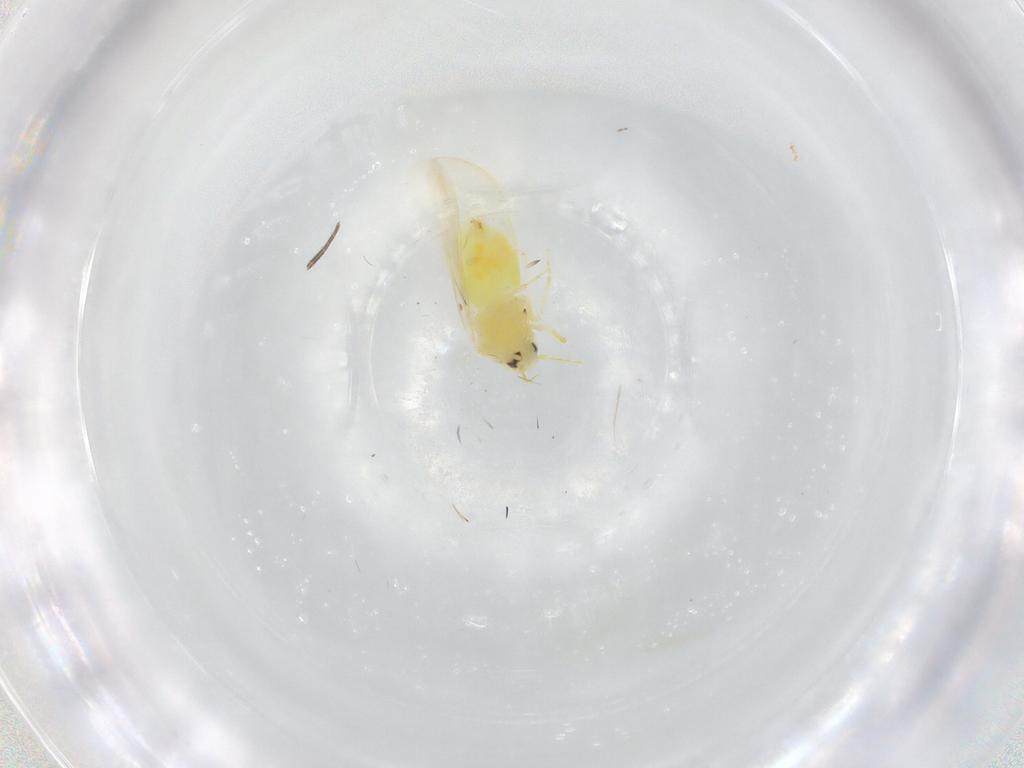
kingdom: Animalia
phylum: Arthropoda
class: Insecta
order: Hemiptera
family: Aleyrodidae
